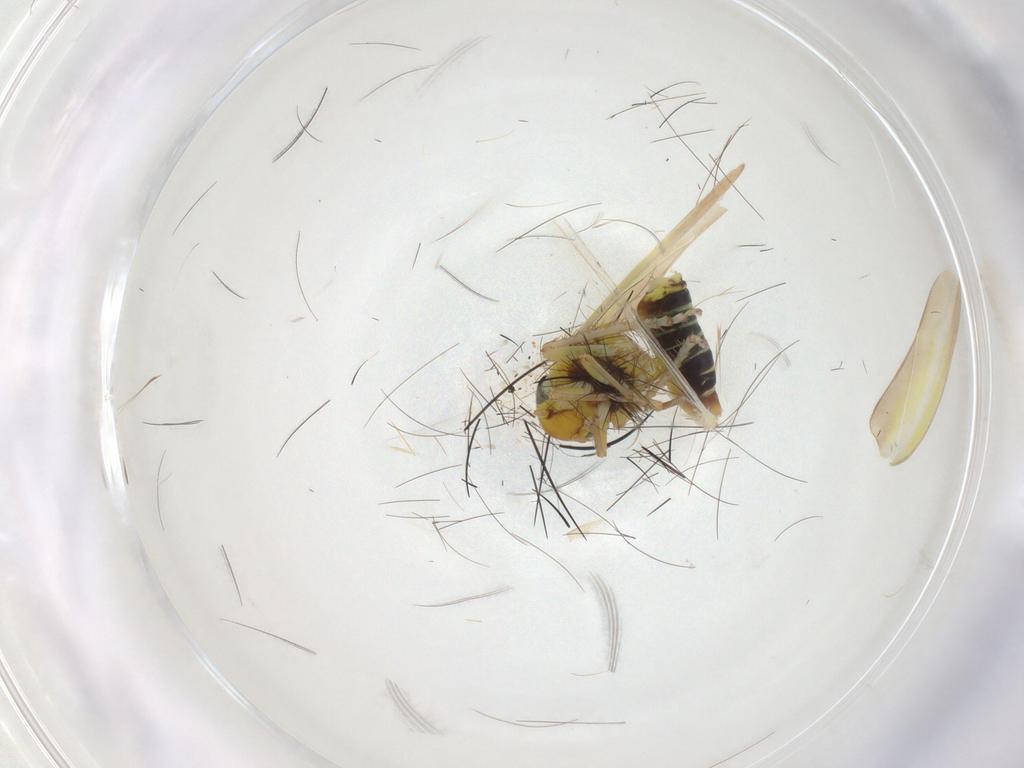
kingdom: Animalia
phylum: Arthropoda
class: Insecta
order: Hemiptera
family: Cicadellidae
